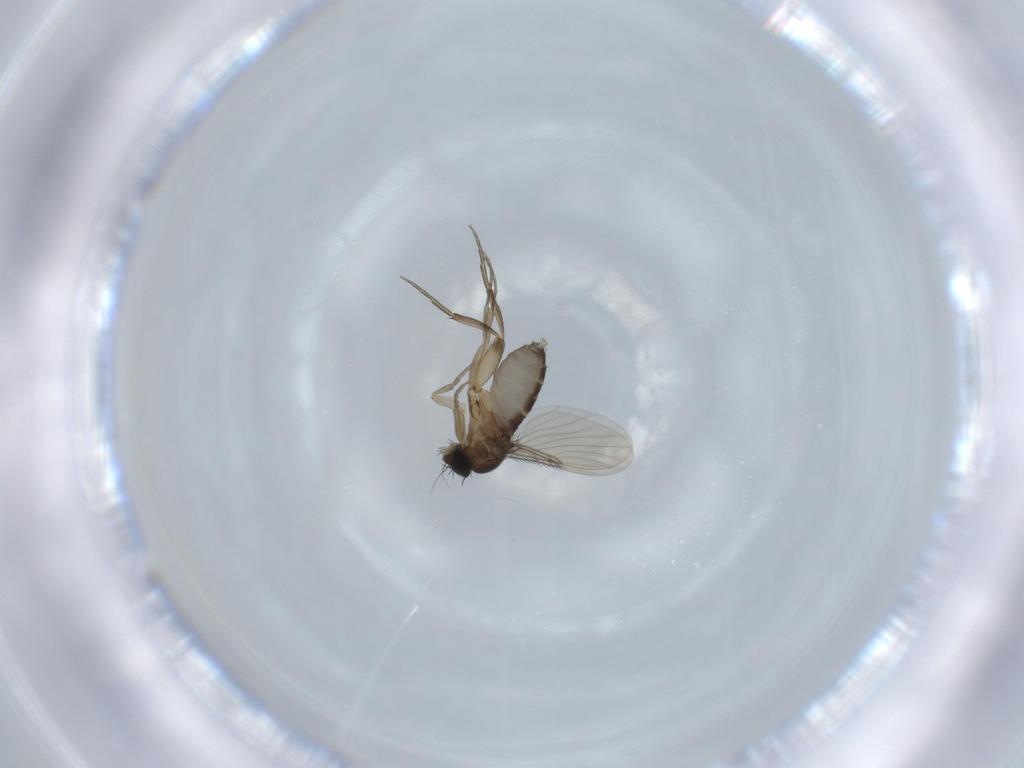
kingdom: Animalia
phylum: Arthropoda
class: Insecta
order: Diptera
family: Phoridae
